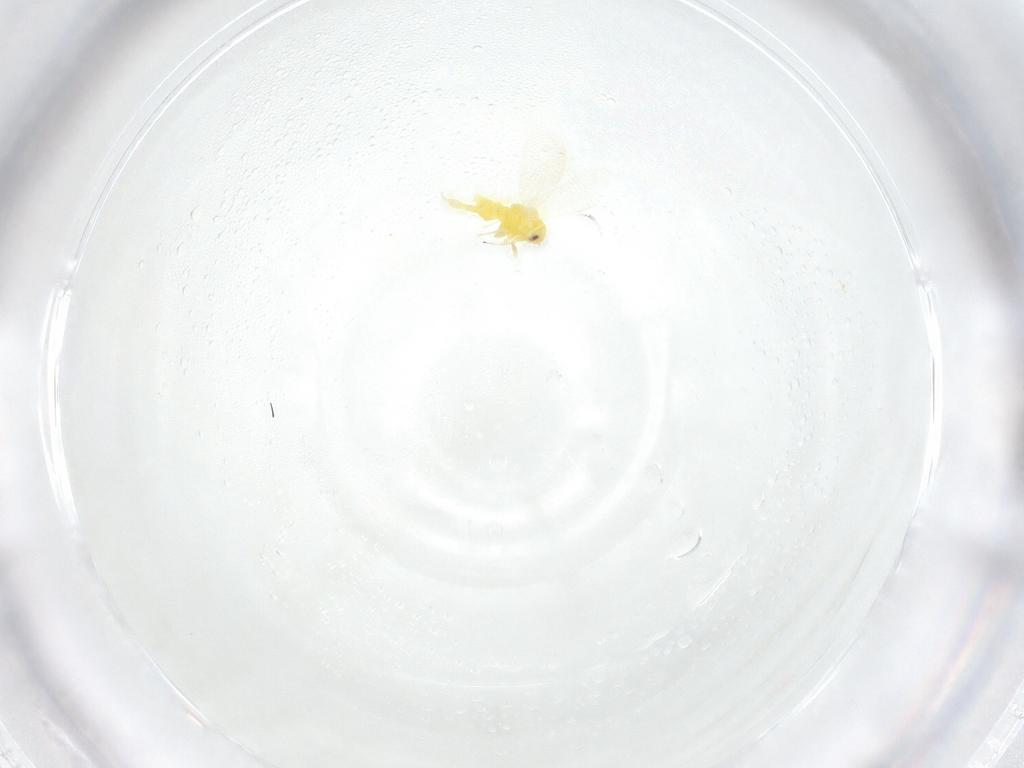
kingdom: Animalia
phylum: Arthropoda
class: Insecta
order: Hemiptera
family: Aleyrodidae
